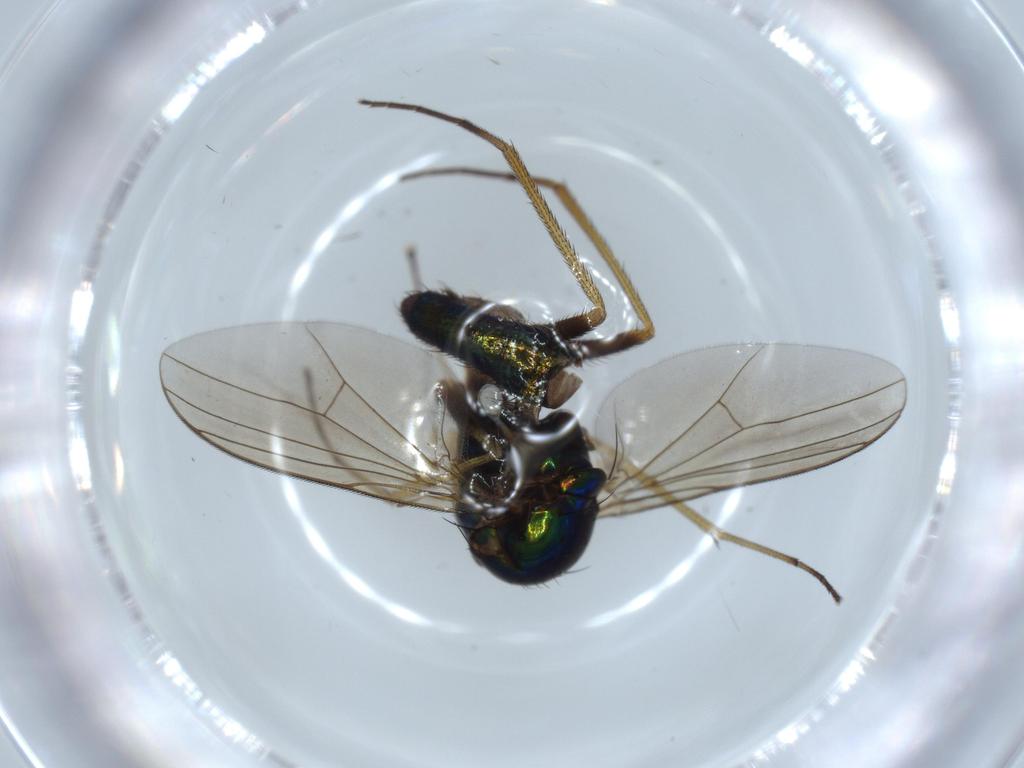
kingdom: Animalia
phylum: Arthropoda
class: Insecta
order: Diptera
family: Dolichopodidae
